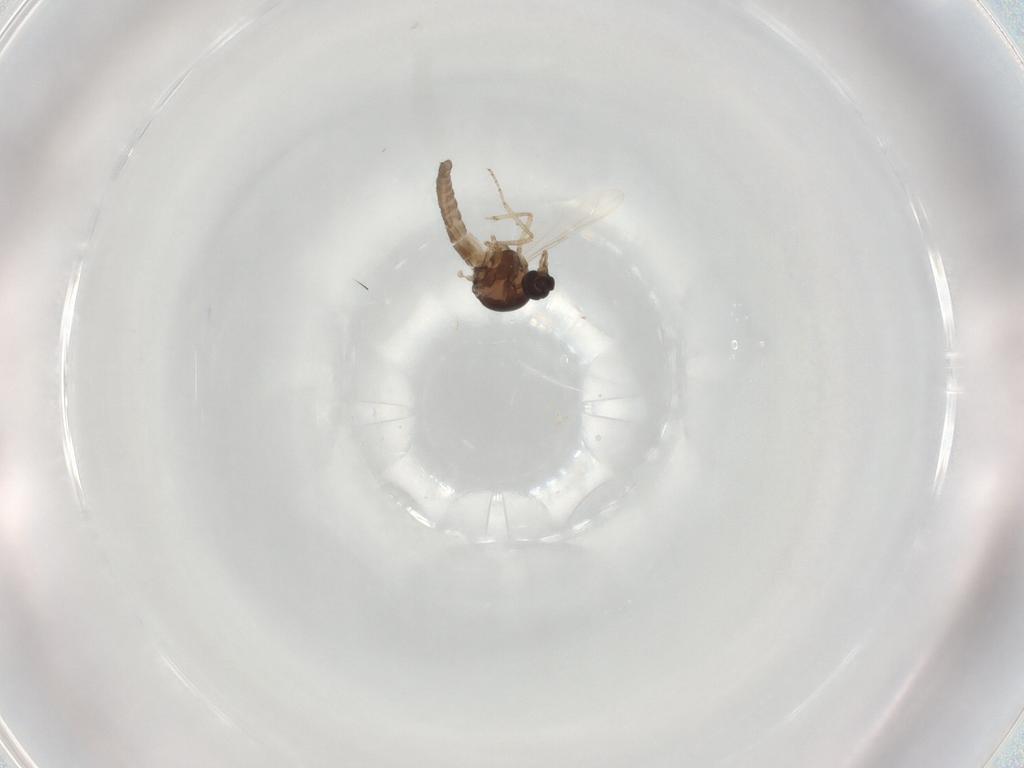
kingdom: Animalia
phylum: Arthropoda
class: Insecta
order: Diptera
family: Ceratopogonidae
